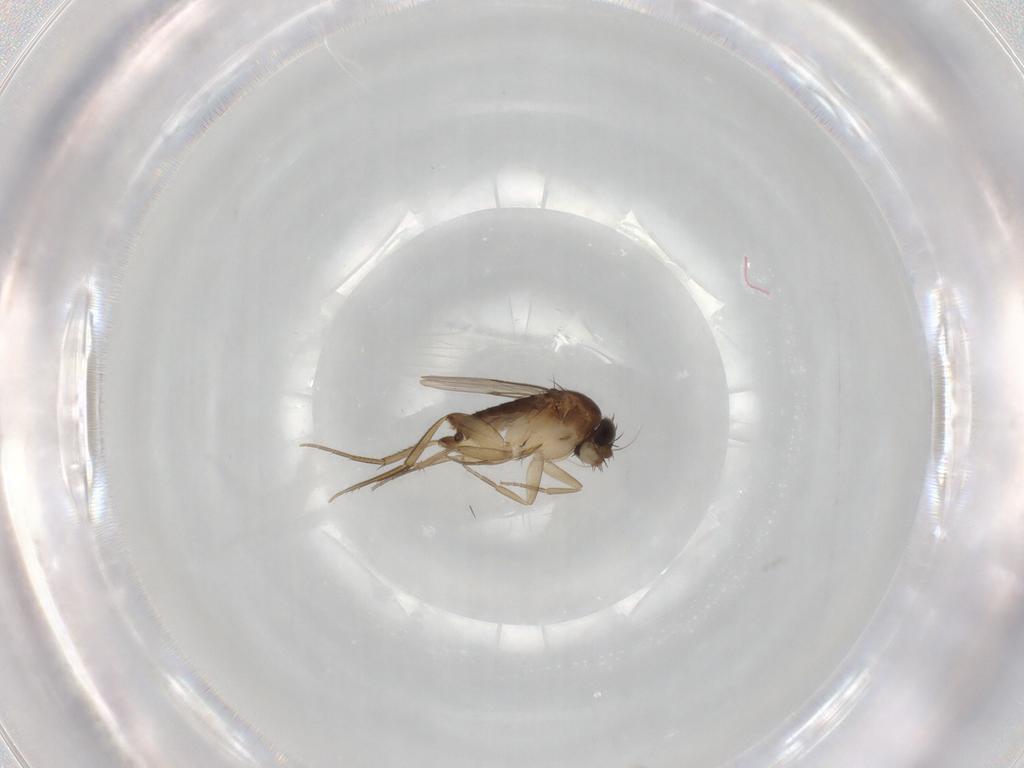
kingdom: Animalia
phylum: Arthropoda
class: Insecta
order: Diptera
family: Phoridae
